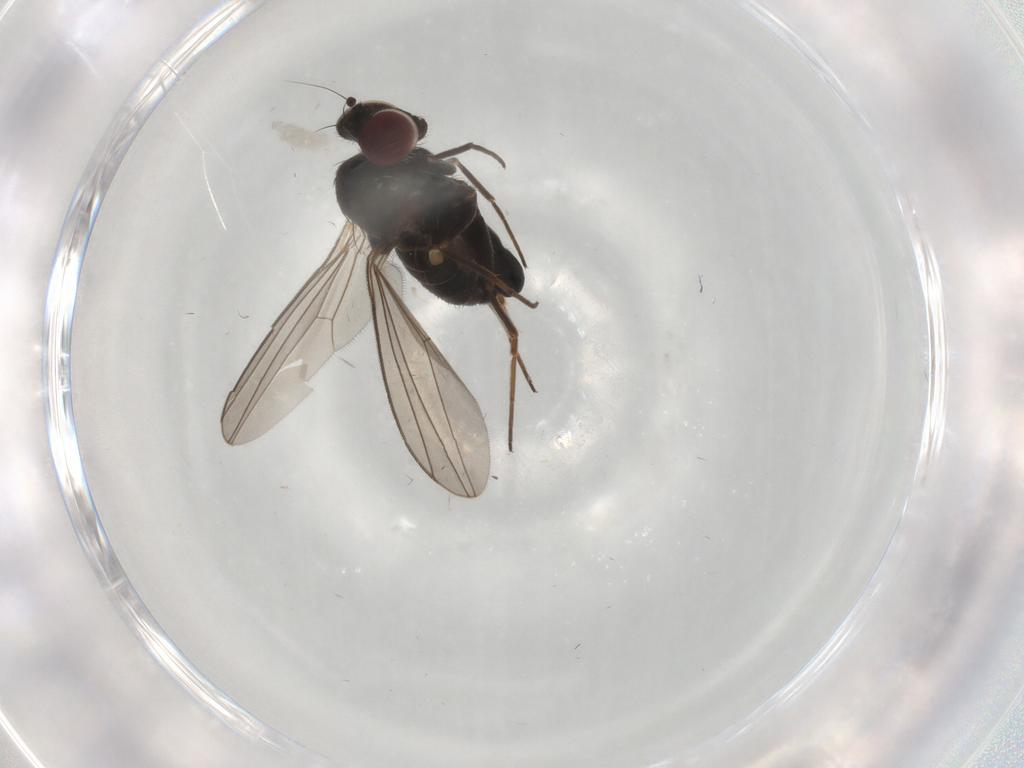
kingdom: Animalia
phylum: Arthropoda
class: Insecta
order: Diptera
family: Dolichopodidae
